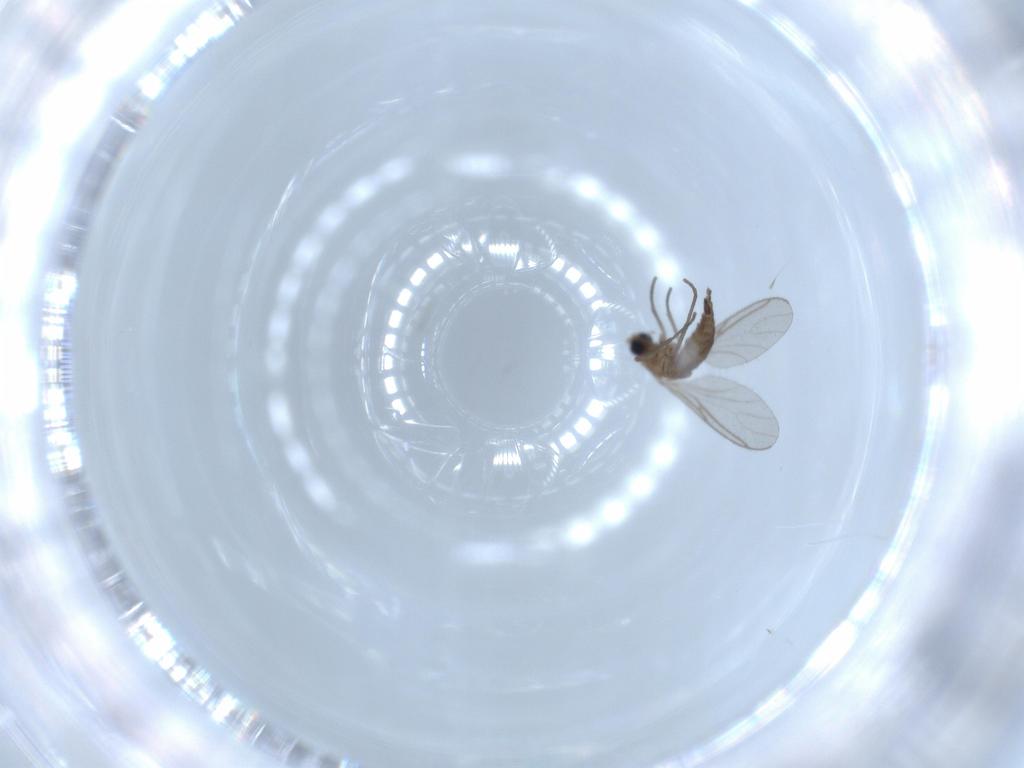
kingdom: Animalia
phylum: Arthropoda
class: Insecta
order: Diptera
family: Sciaridae
